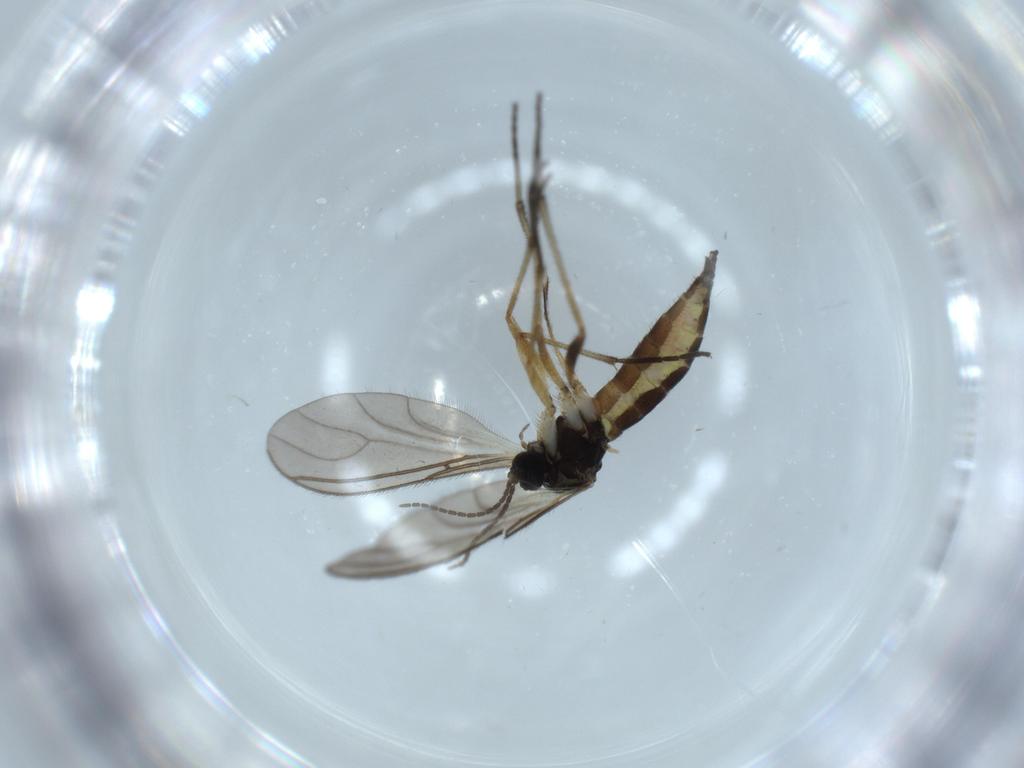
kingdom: Animalia
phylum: Arthropoda
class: Insecta
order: Diptera
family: Sciaridae
